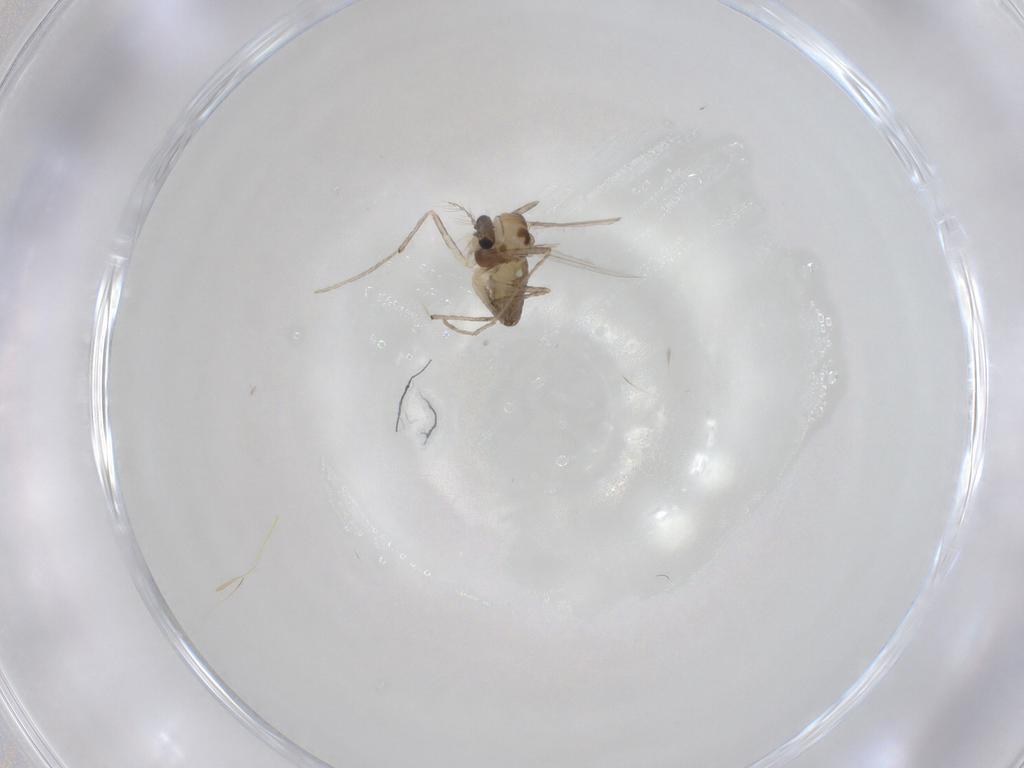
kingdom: Animalia
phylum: Arthropoda
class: Insecta
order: Diptera
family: Chironomidae
